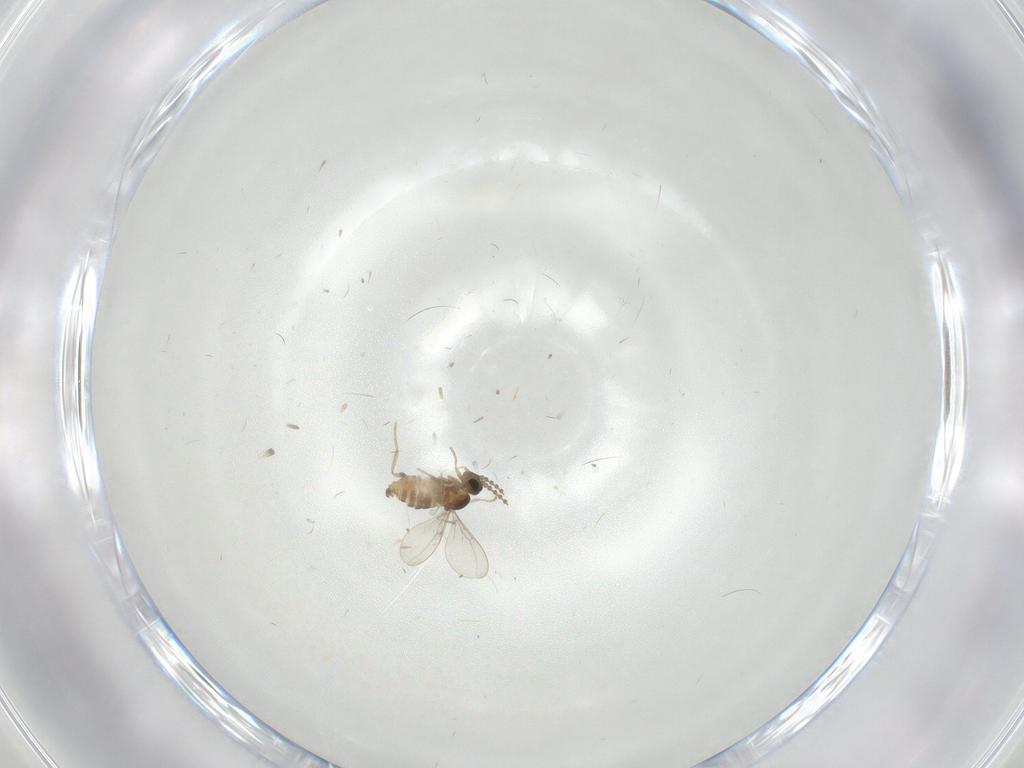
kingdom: Animalia
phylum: Arthropoda
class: Insecta
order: Diptera
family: Cecidomyiidae
